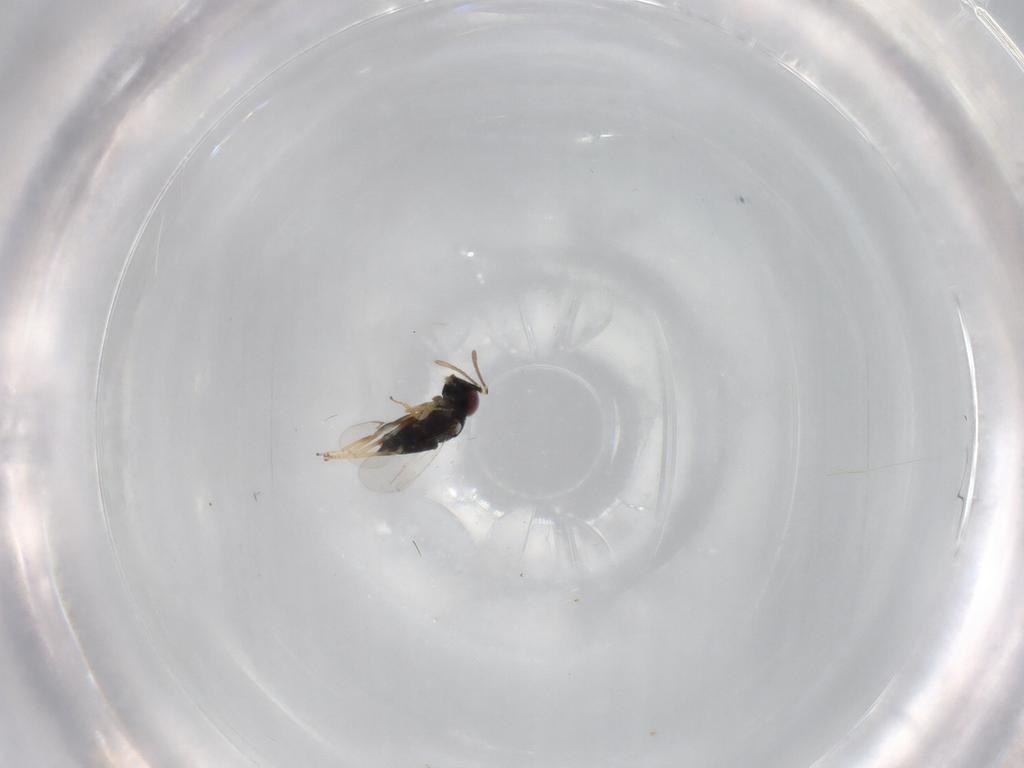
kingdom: Animalia
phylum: Arthropoda
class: Insecta
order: Hymenoptera
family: Encyrtidae
